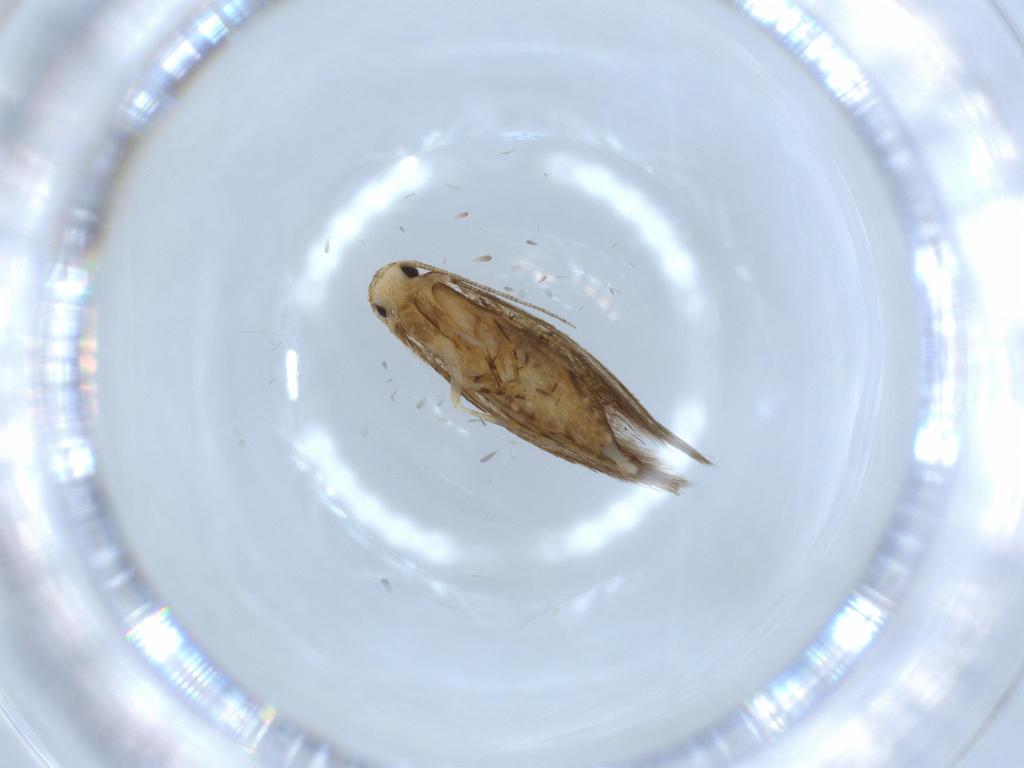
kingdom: Animalia
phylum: Arthropoda
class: Insecta
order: Lepidoptera
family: Tineidae
